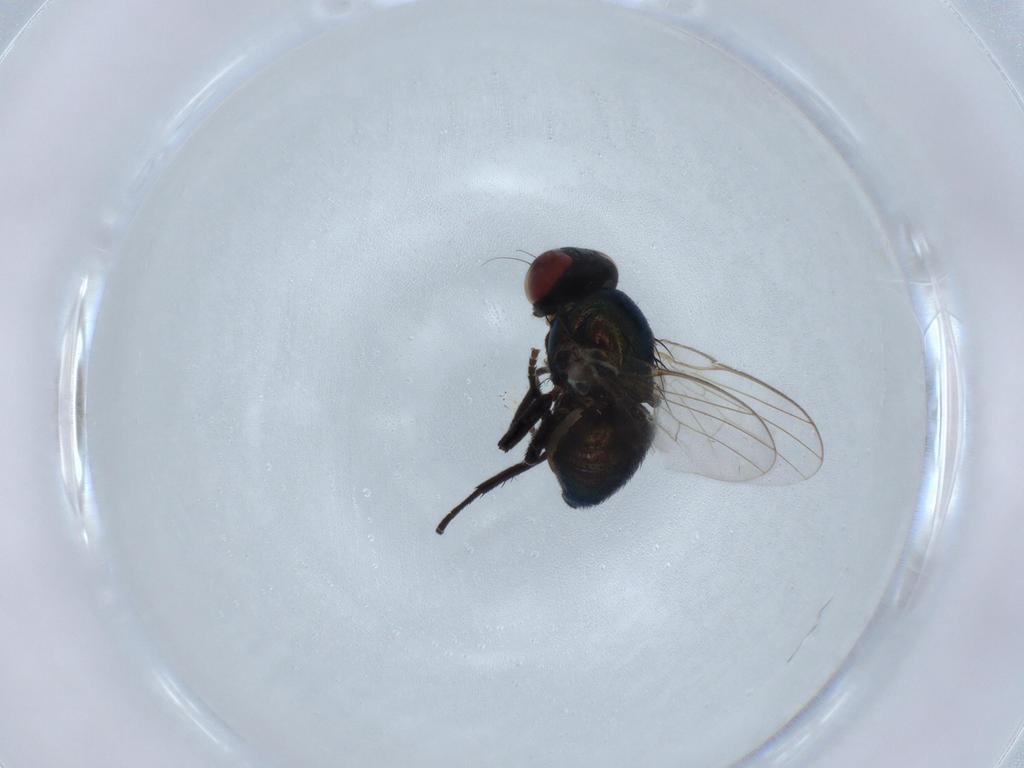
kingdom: Animalia
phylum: Arthropoda
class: Insecta
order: Diptera
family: Agromyzidae
